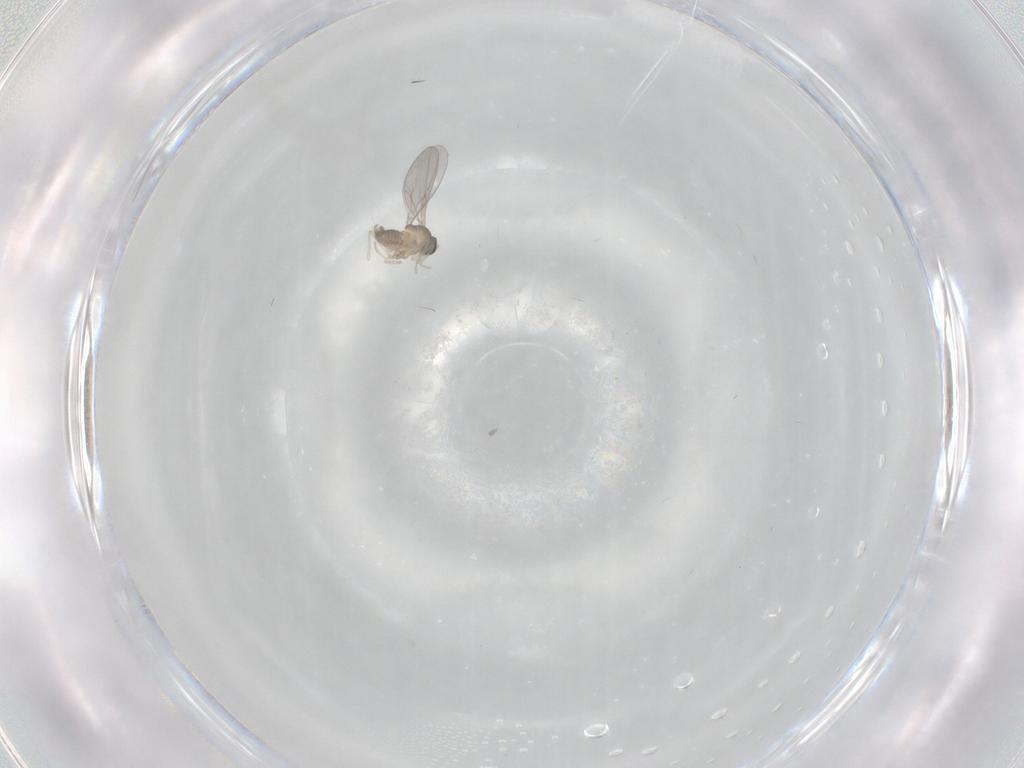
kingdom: Animalia
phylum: Arthropoda
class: Insecta
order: Diptera
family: Cecidomyiidae
